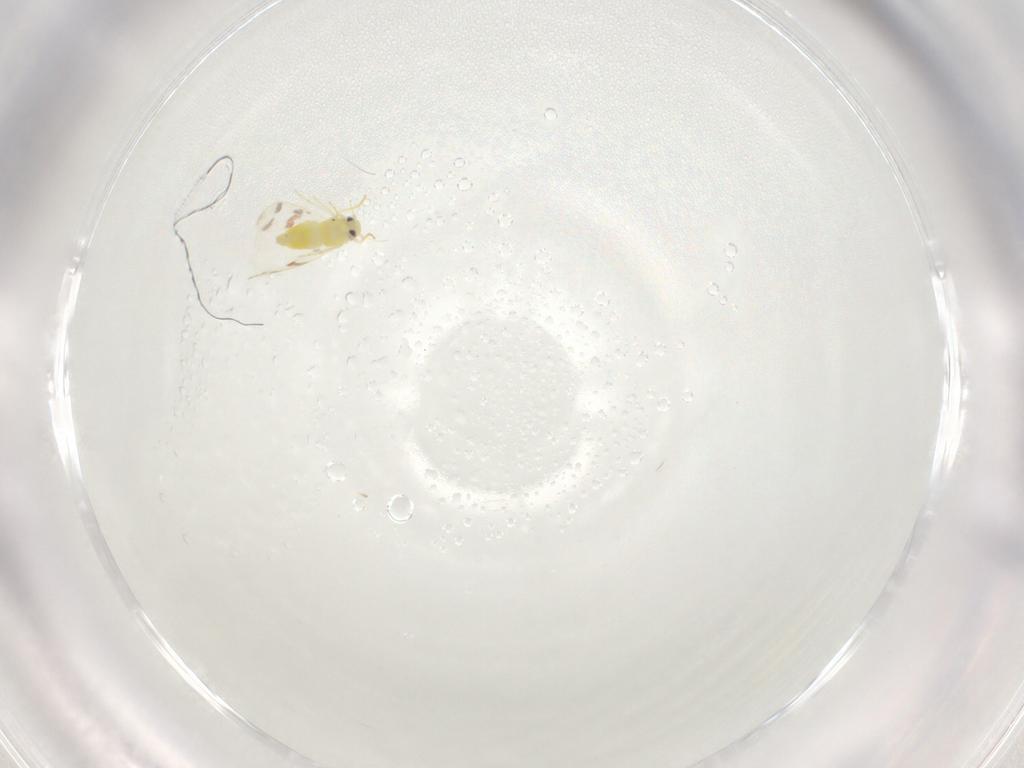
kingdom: Animalia
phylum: Arthropoda
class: Insecta
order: Hemiptera
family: Aleyrodidae
